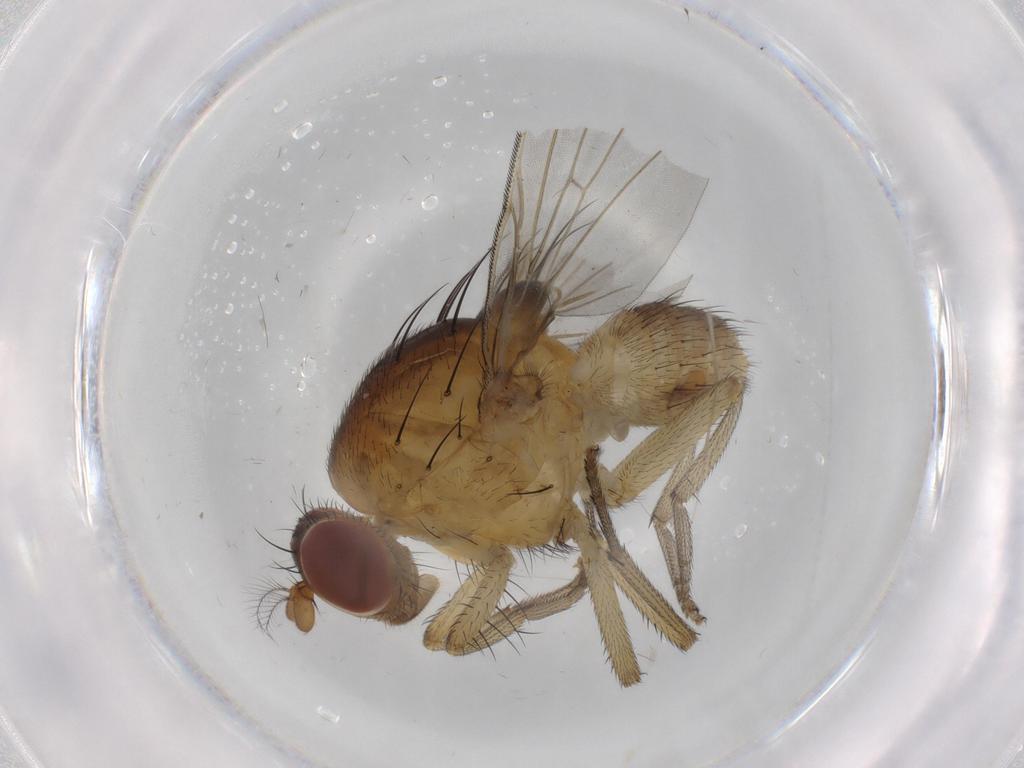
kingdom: Animalia
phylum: Arthropoda
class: Insecta
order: Diptera
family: Lauxaniidae
